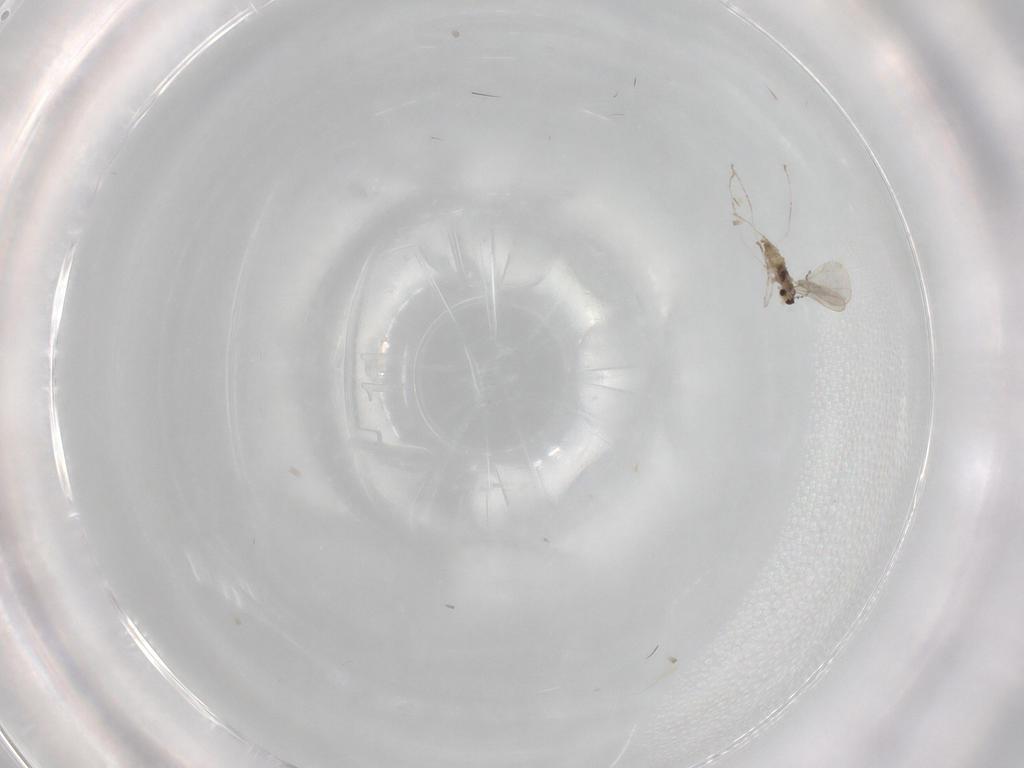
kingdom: Animalia
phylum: Arthropoda
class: Insecta
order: Diptera
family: Cecidomyiidae
